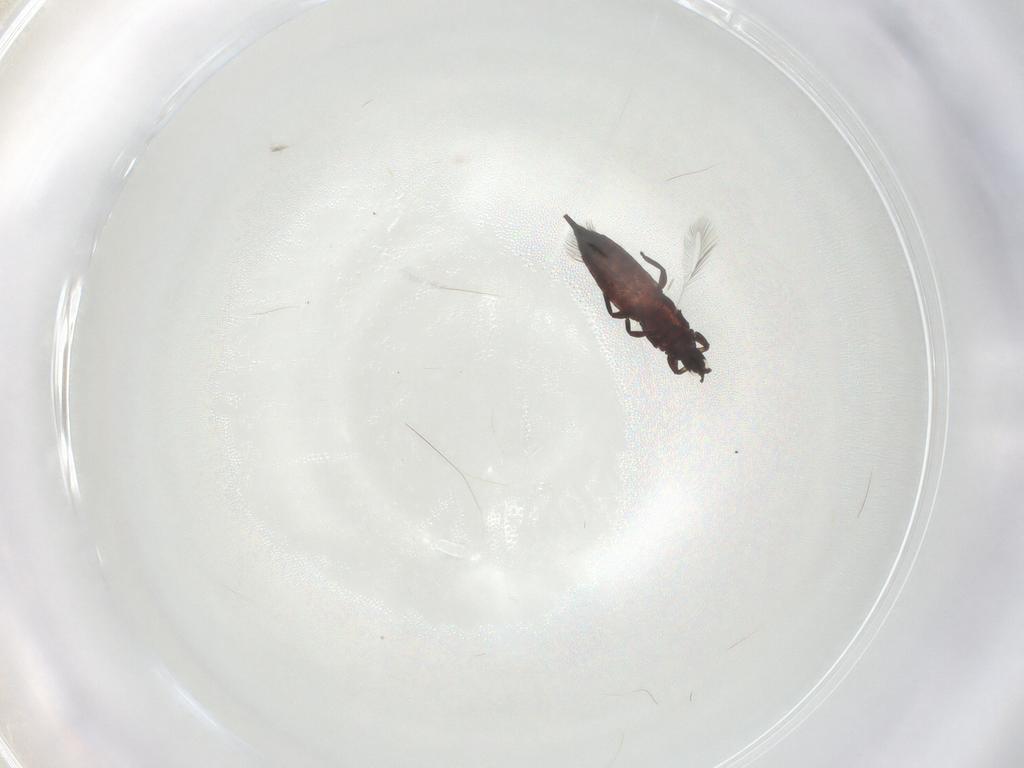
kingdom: Animalia
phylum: Arthropoda
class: Insecta
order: Thysanoptera
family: Phlaeothripidae
